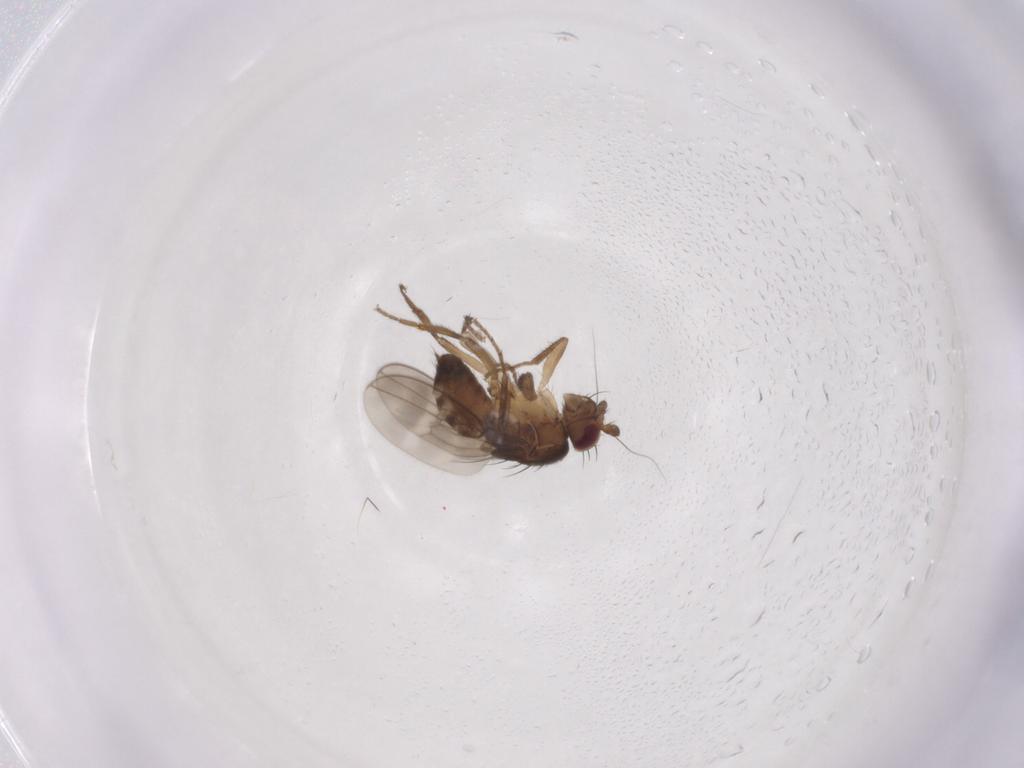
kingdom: Animalia
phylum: Arthropoda
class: Insecta
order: Diptera
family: Sphaeroceridae
